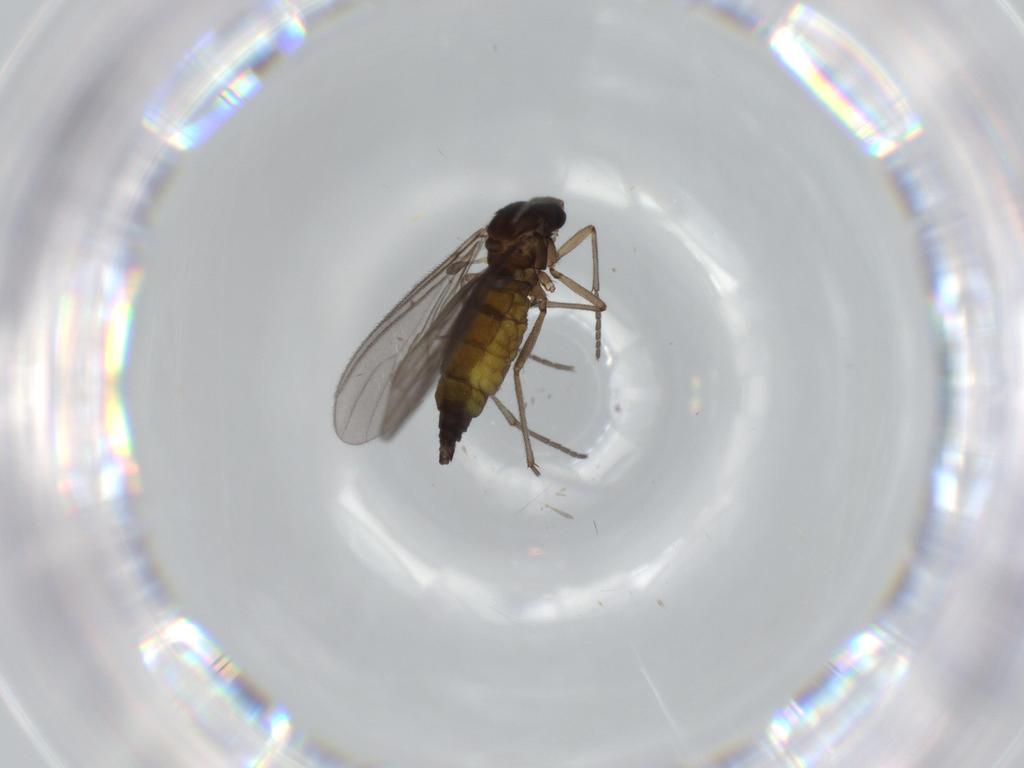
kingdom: Animalia
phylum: Arthropoda
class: Insecta
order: Diptera
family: Sciaridae
